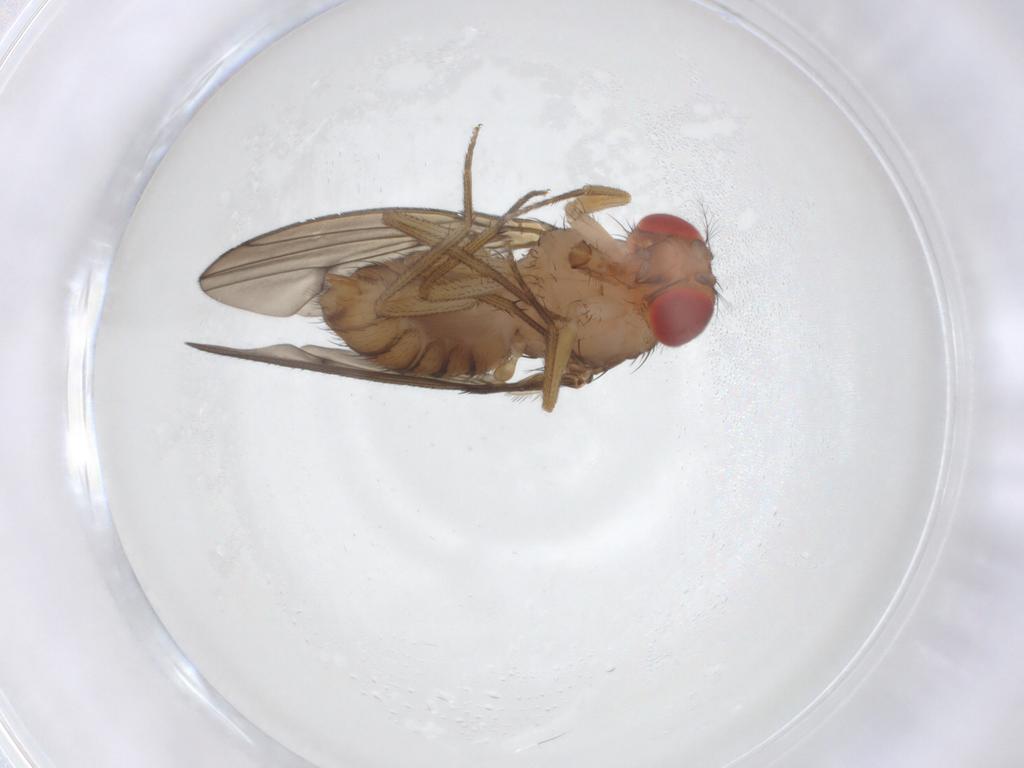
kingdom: Animalia
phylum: Arthropoda
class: Insecta
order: Diptera
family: Drosophilidae
